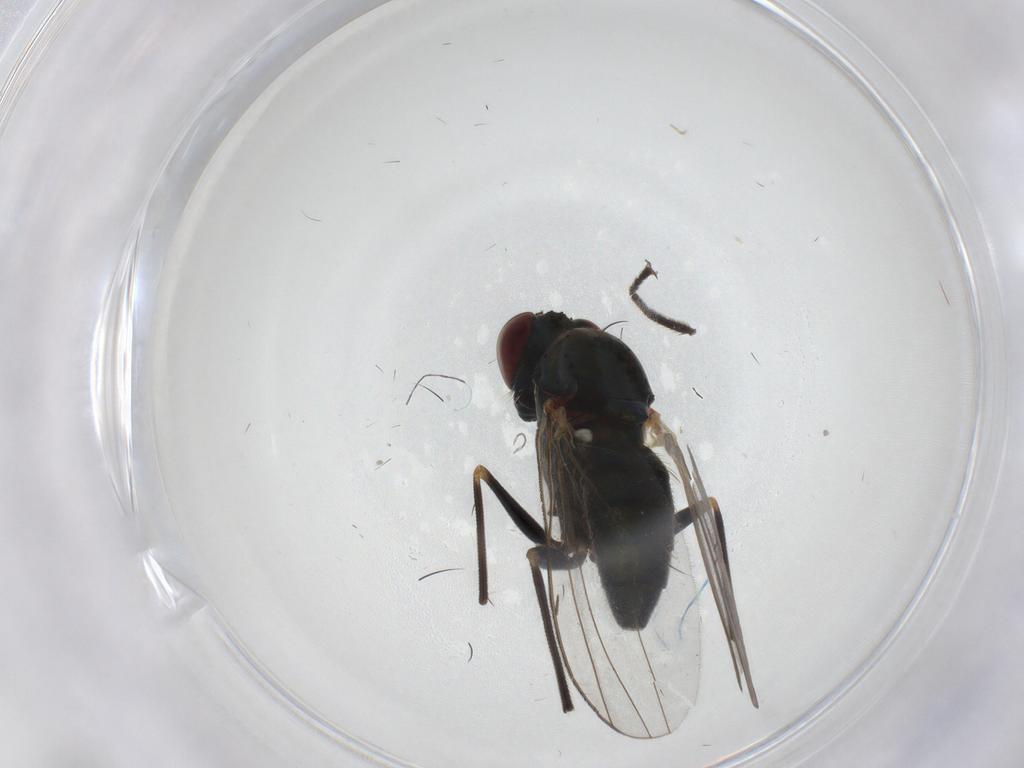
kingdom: Animalia
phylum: Arthropoda
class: Insecta
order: Diptera
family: Dolichopodidae
